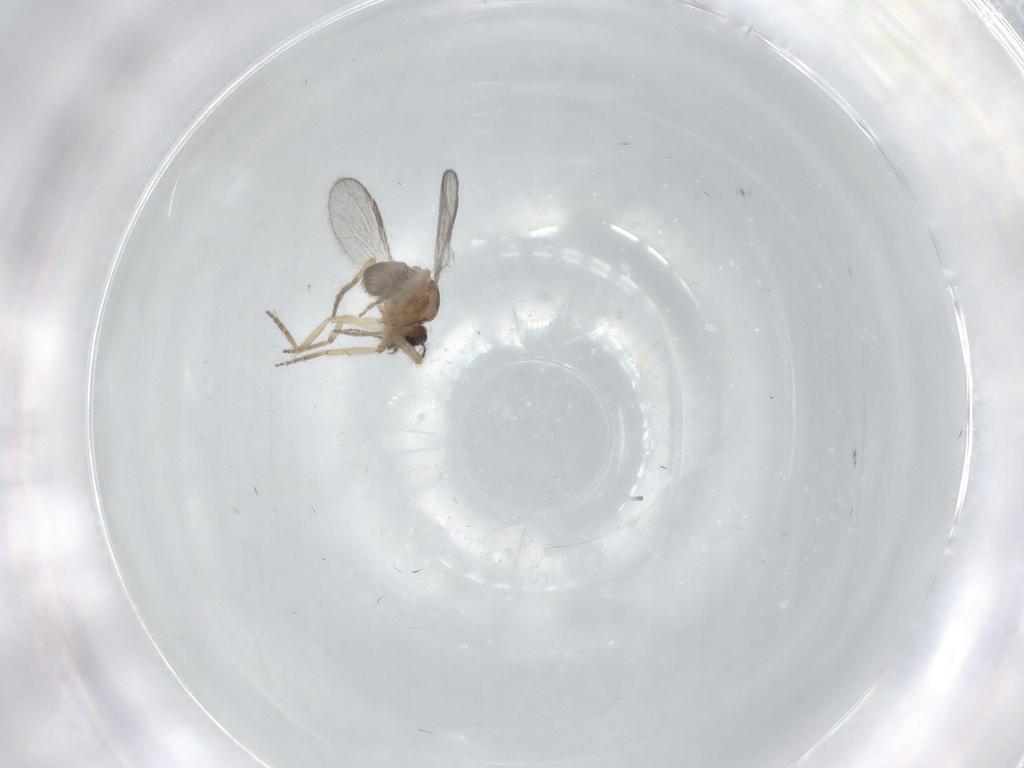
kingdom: Animalia
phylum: Arthropoda
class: Insecta
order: Diptera
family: Ceratopogonidae
